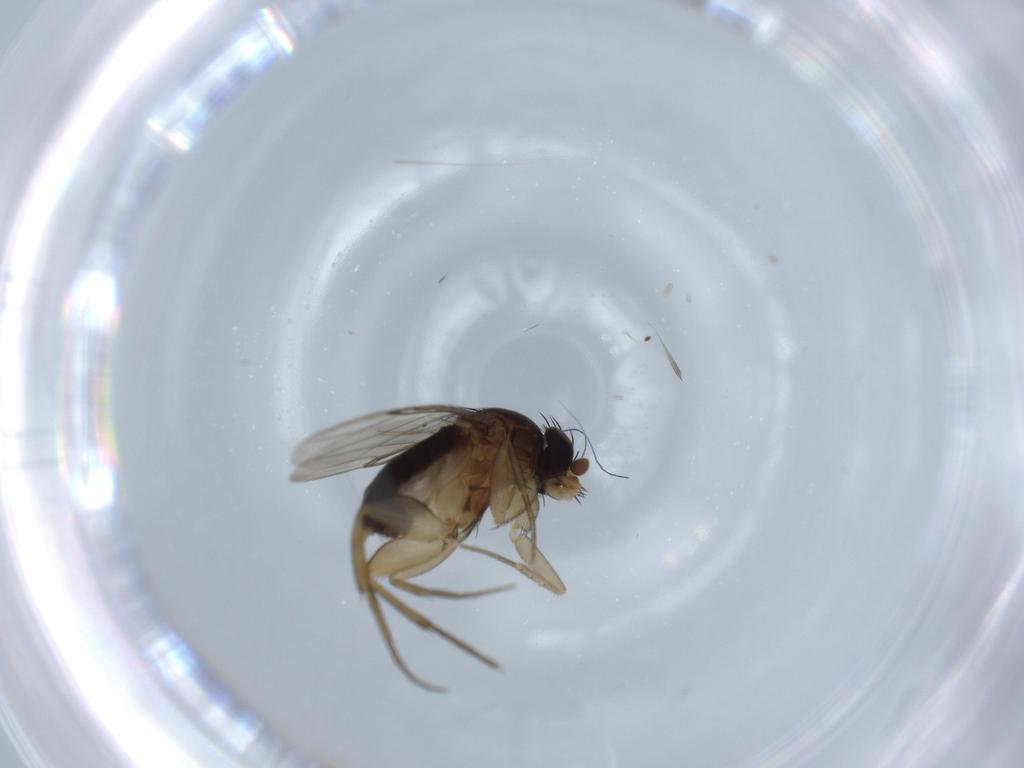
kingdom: Animalia
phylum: Arthropoda
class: Insecta
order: Diptera
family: Phoridae
